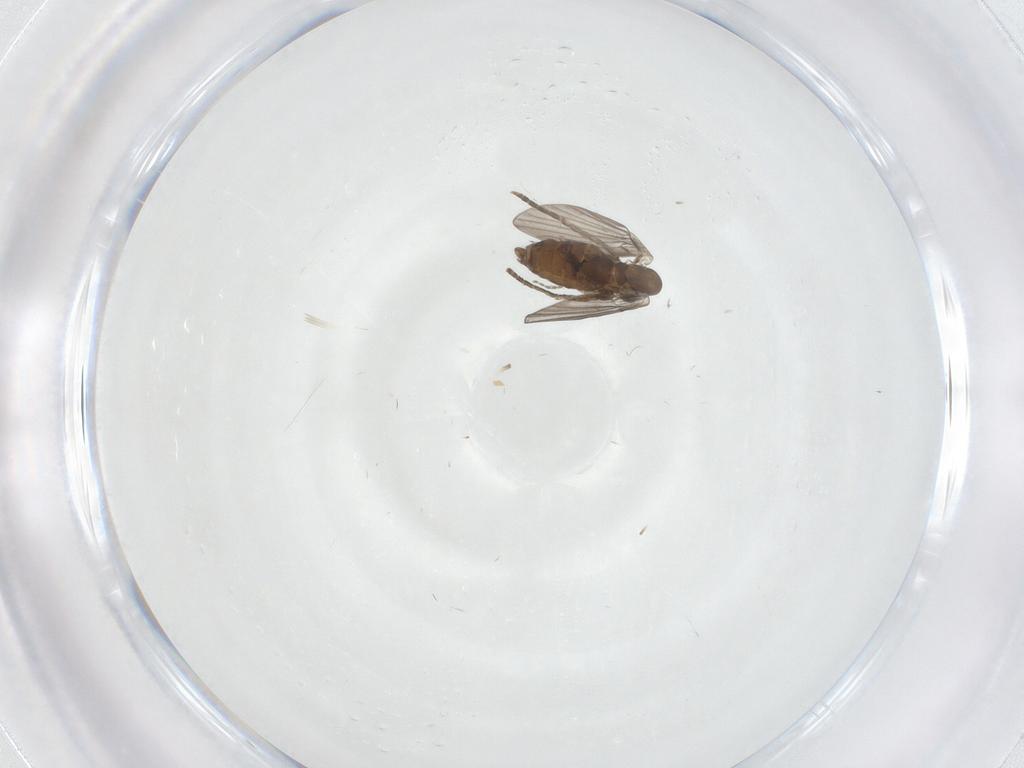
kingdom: Animalia
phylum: Arthropoda
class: Insecta
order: Diptera
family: Psychodidae
